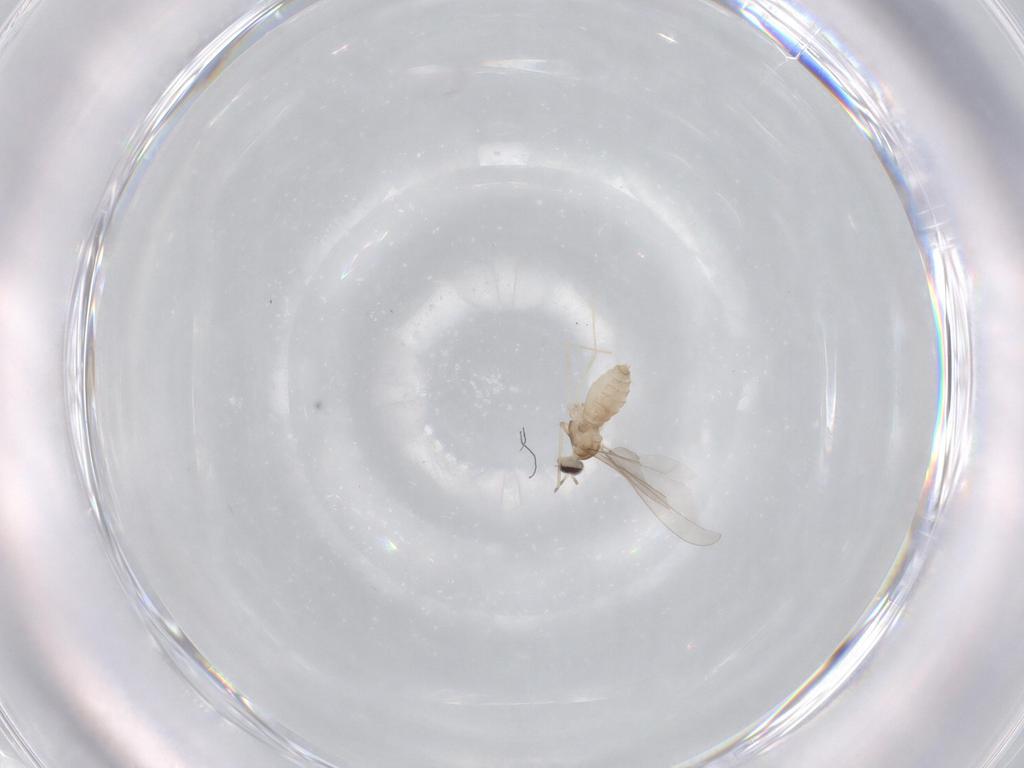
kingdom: Animalia
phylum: Arthropoda
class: Insecta
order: Diptera
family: Cecidomyiidae
